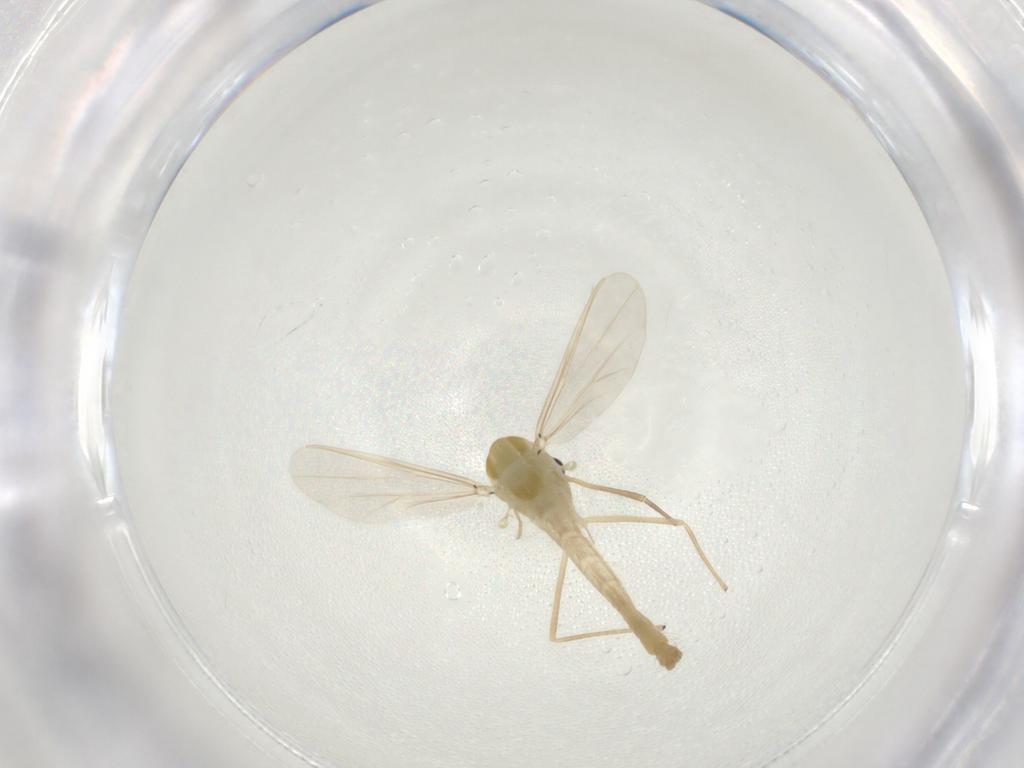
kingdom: Animalia
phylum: Arthropoda
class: Insecta
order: Diptera
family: Chironomidae
